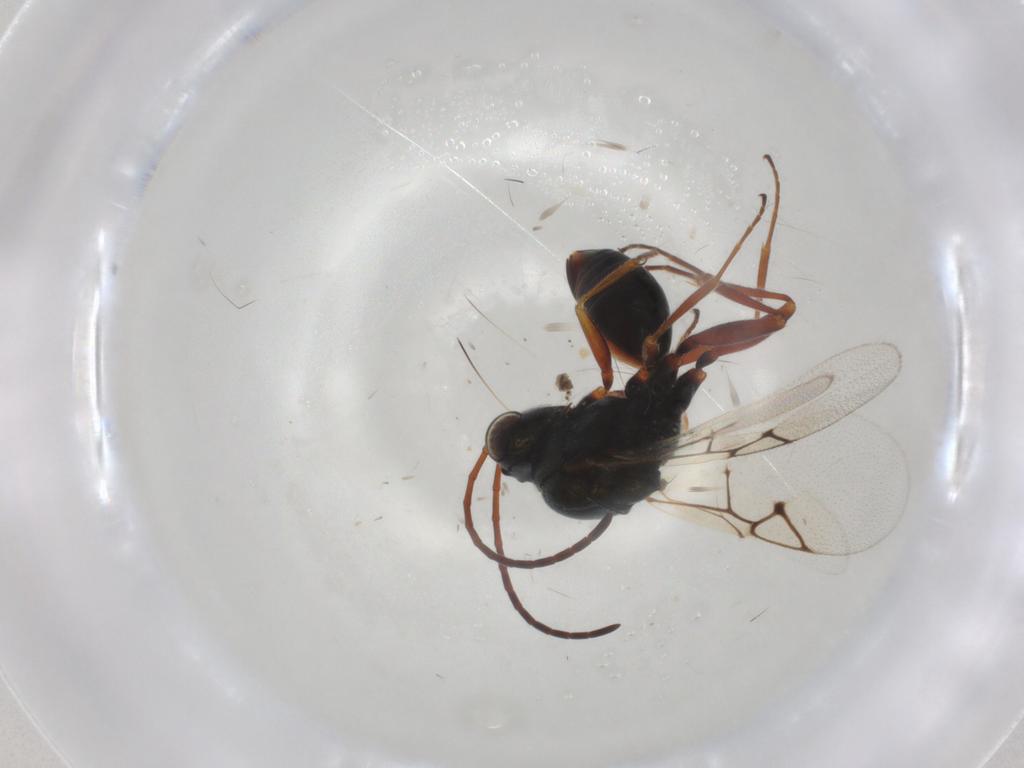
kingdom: Animalia
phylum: Arthropoda
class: Insecta
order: Hymenoptera
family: Figitidae
